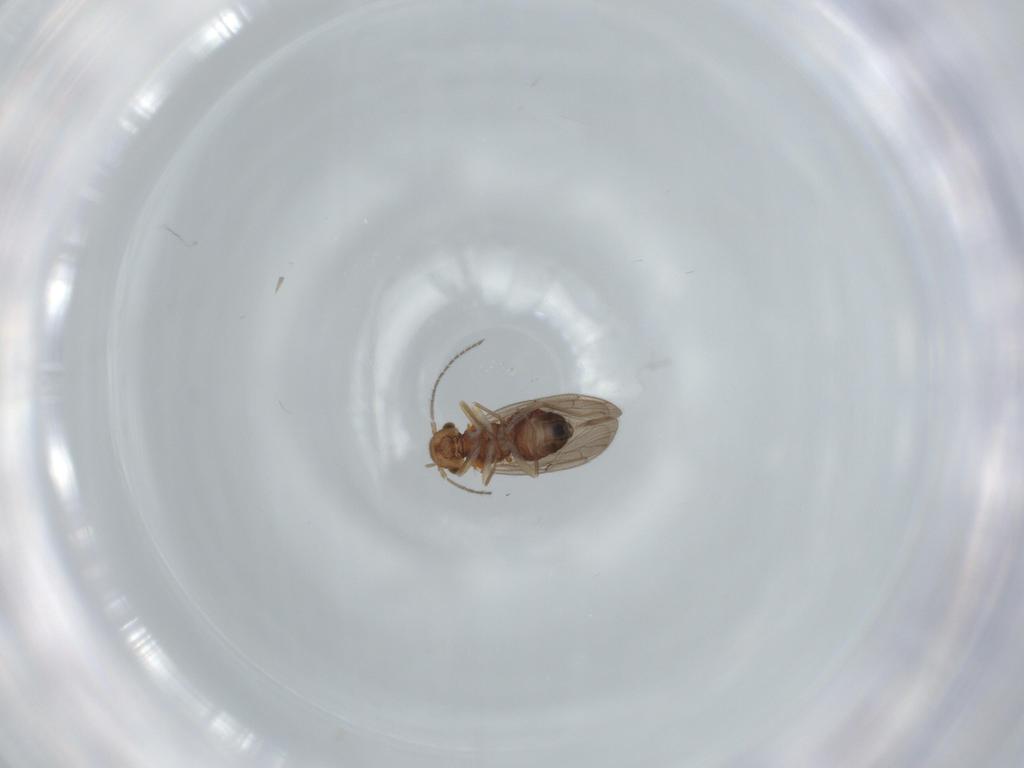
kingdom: Animalia
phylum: Arthropoda
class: Insecta
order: Psocodea
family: Ectopsocidae
